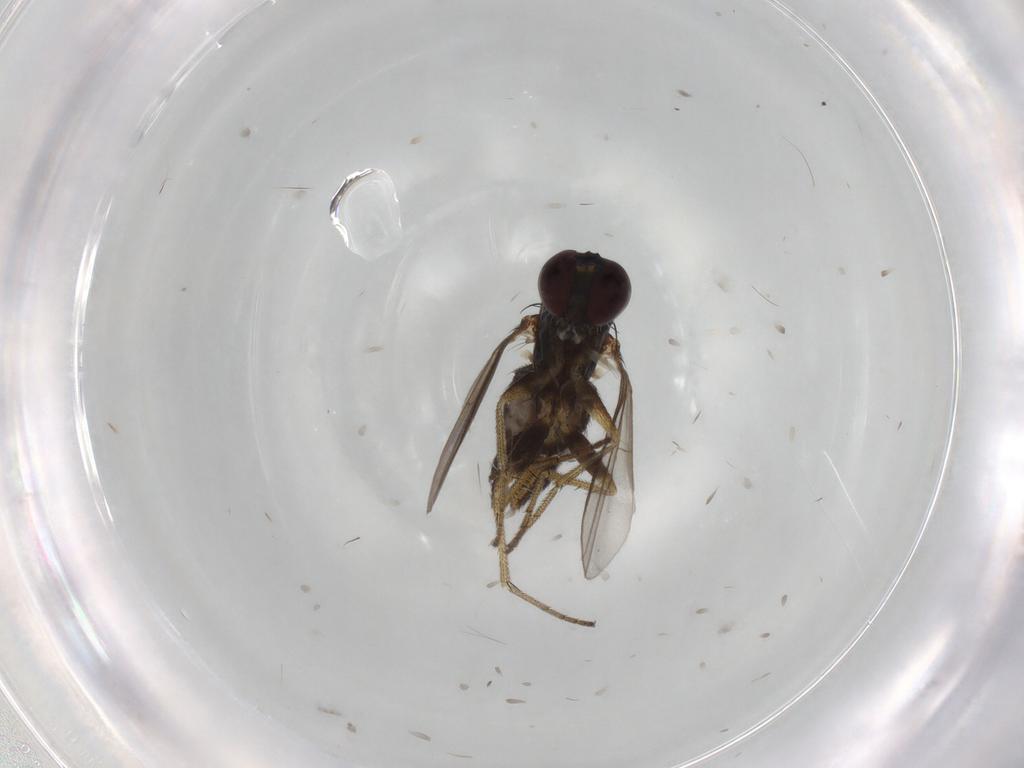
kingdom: Animalia
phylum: Arthropoda
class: Insecta
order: Diptera
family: Dolichopodidae
